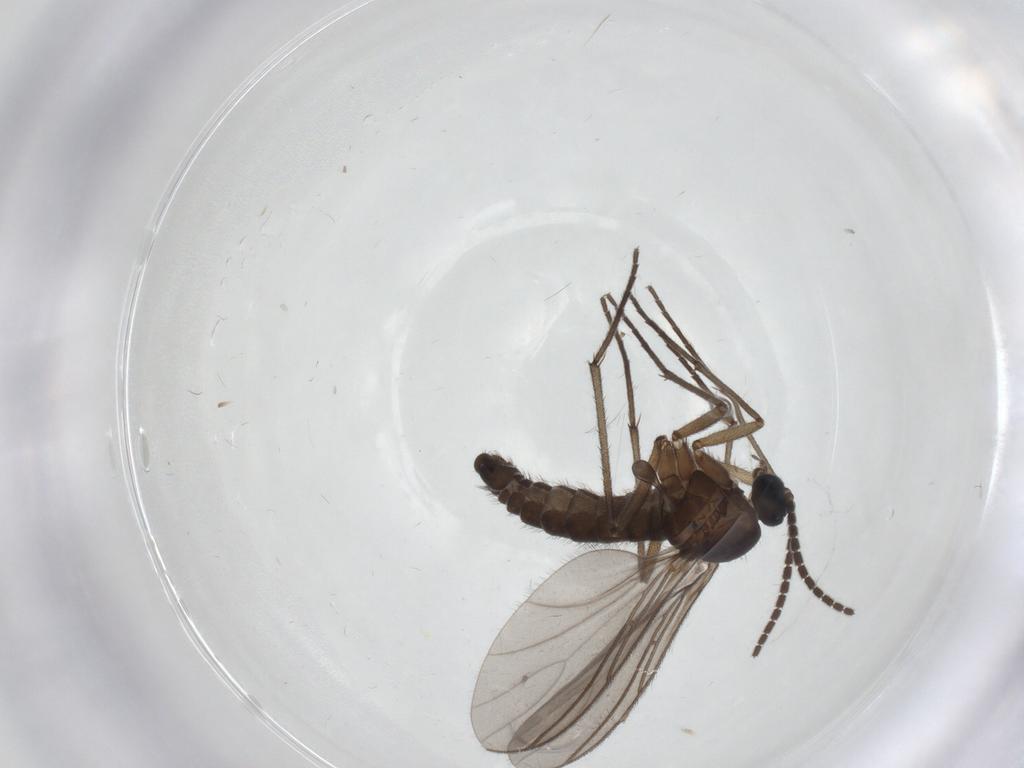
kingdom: Animalia
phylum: Arthropoda
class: Insecta
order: Diptera
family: Sciaridae
